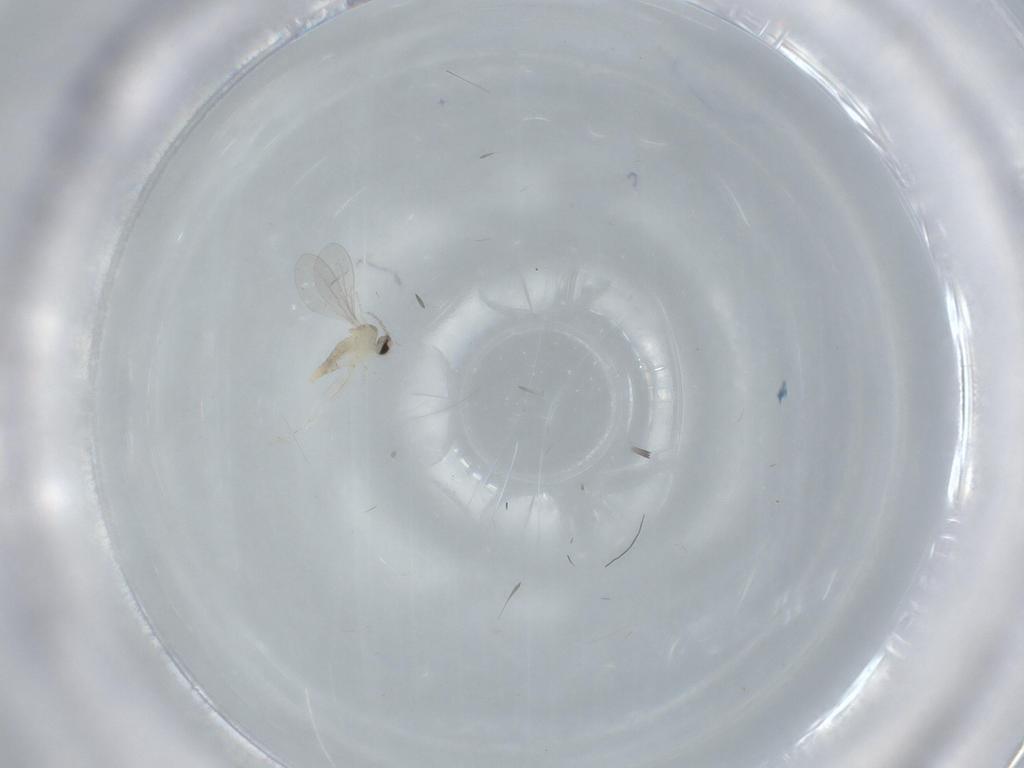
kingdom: Animalia
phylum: Arthropoda
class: Insecta
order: Diptera
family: Cecidomyiidae
